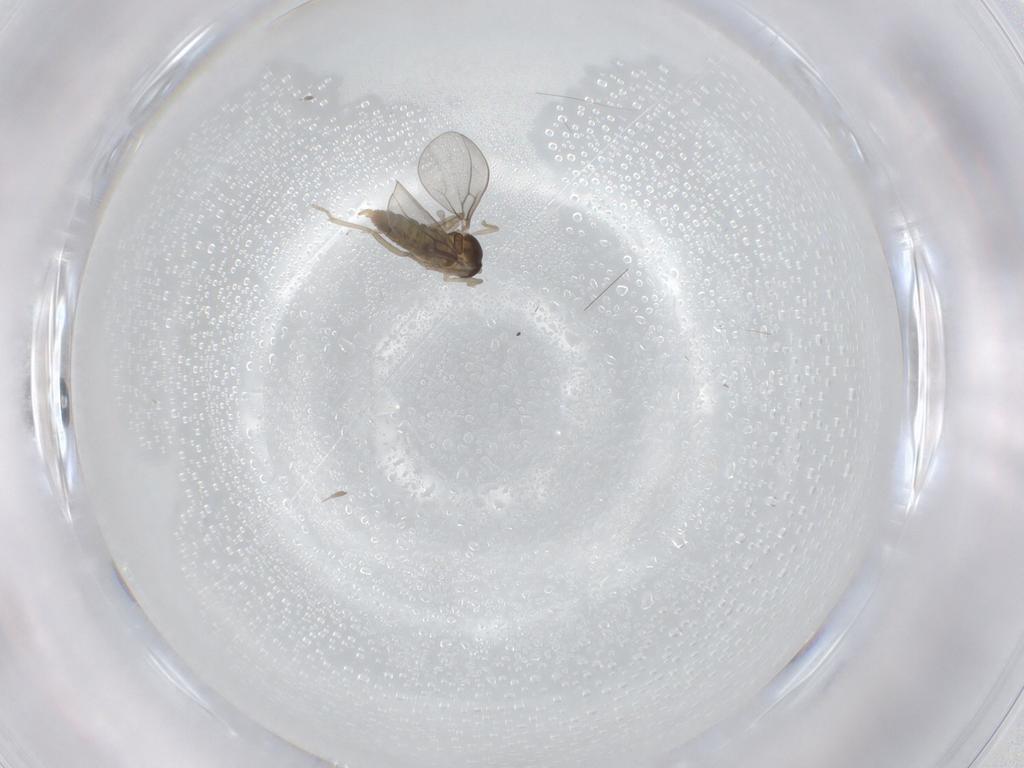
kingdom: Animalia
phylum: Arthropoda
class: Insecta
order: Diptera
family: Cecidomyiidae
